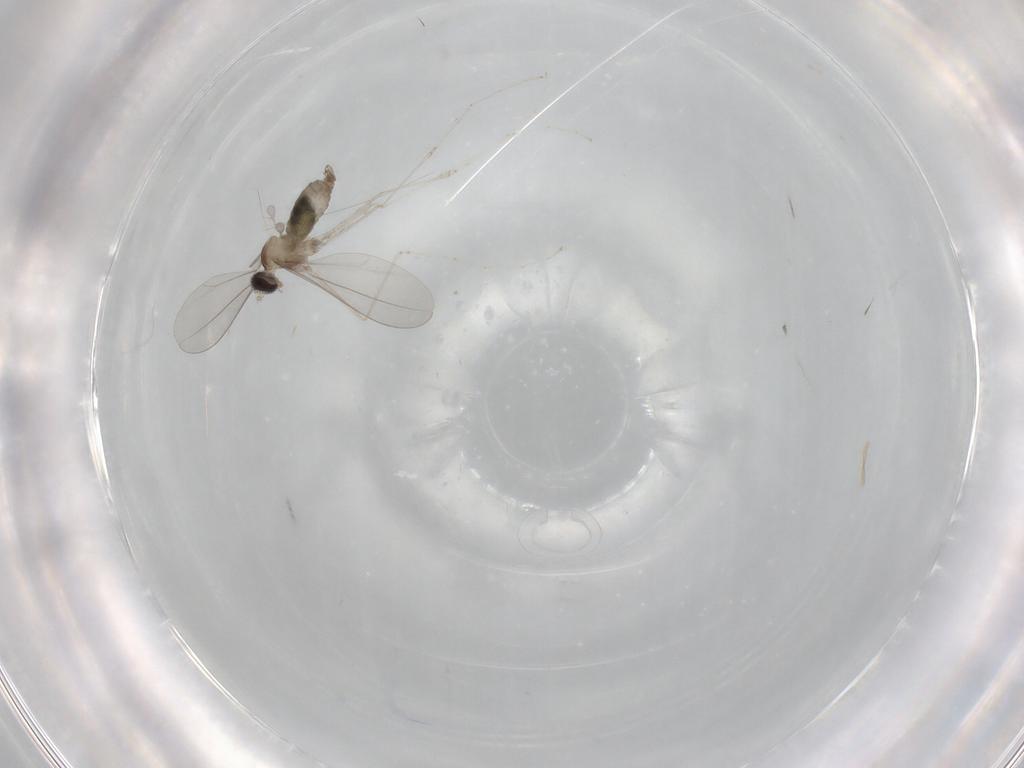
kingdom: Animalia
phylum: Arthropoda
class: Insecta
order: Diptera
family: Cecidomyiidae
